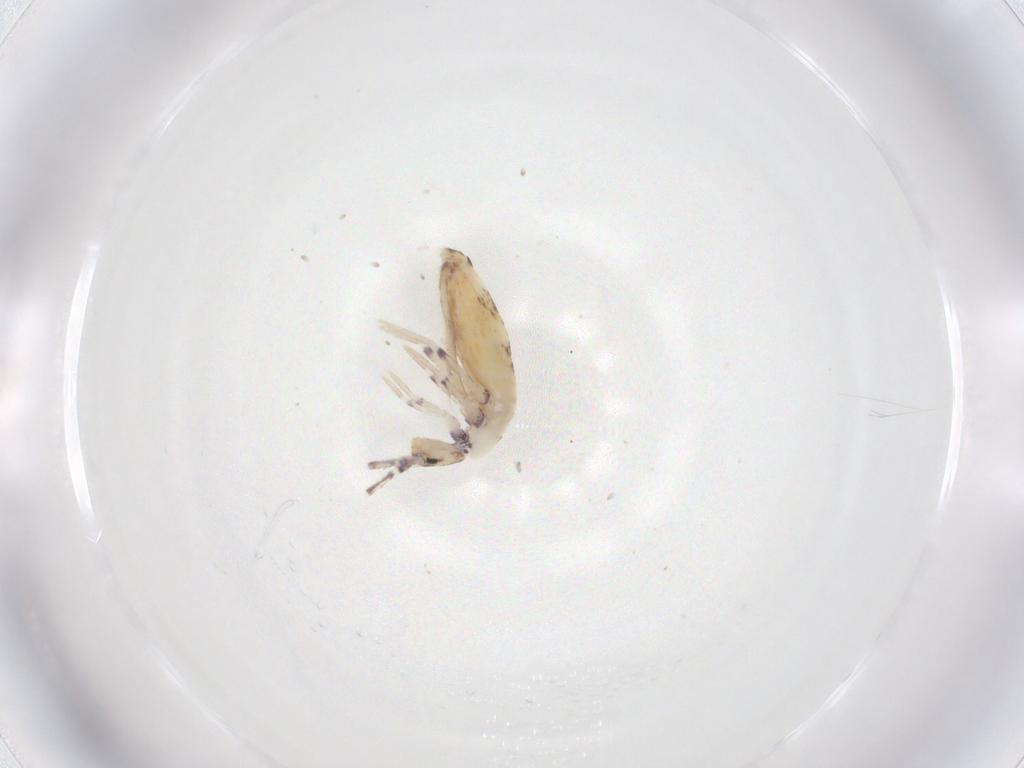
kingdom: Animalia
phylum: Arthropoda
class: Collembola
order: Entomobryomorpha
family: Entomobryidae
